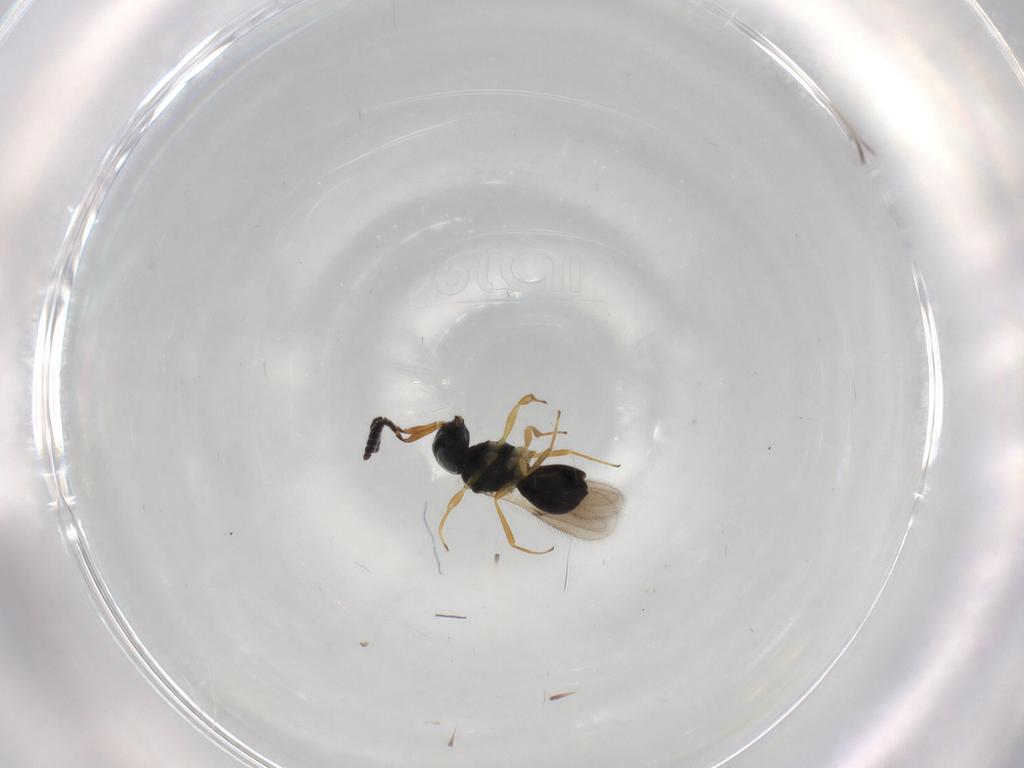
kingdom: Animalia
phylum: Arthropoda
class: Insecta
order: Hymenoptera
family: Scelionidae
